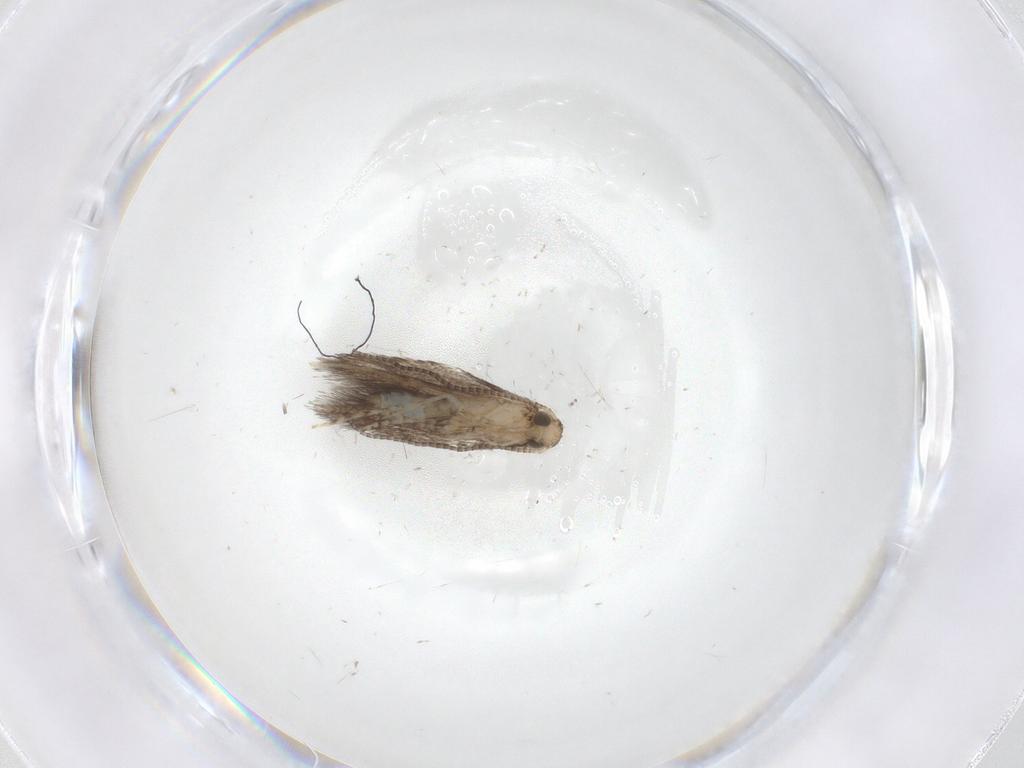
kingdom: Animalia
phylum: Arthropoda
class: Insecta
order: Lepidoptera
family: Gracillariidae
